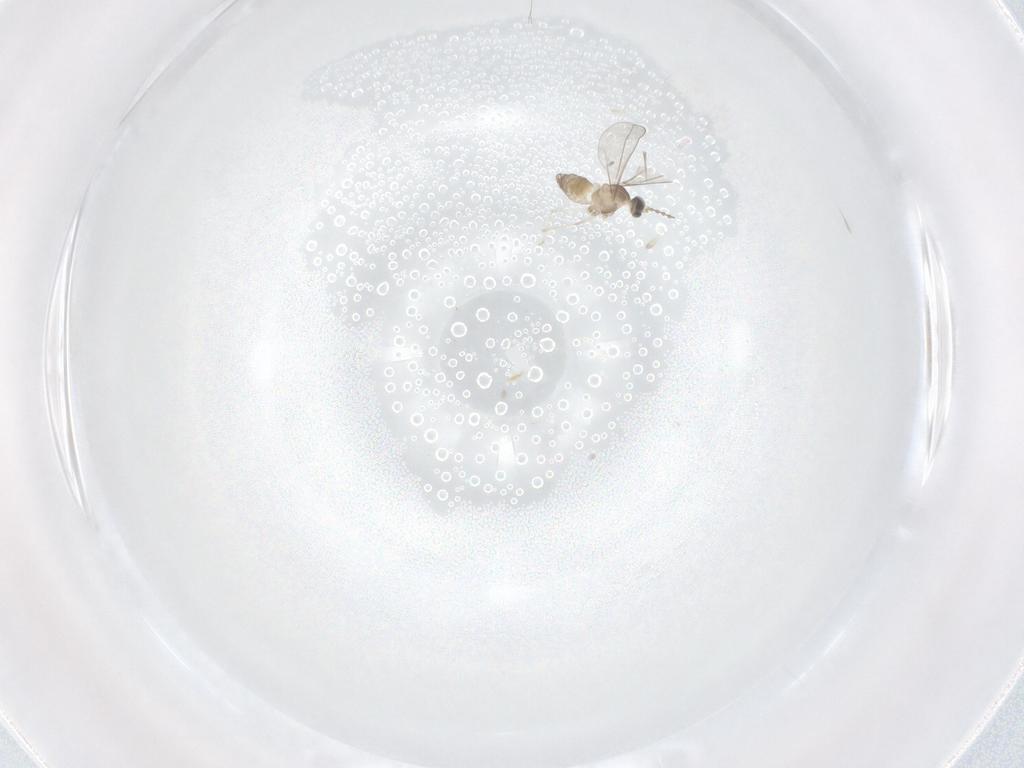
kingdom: Animalia
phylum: Arthropoda
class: Insecta
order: Diptera
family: Cecidomyiidae
